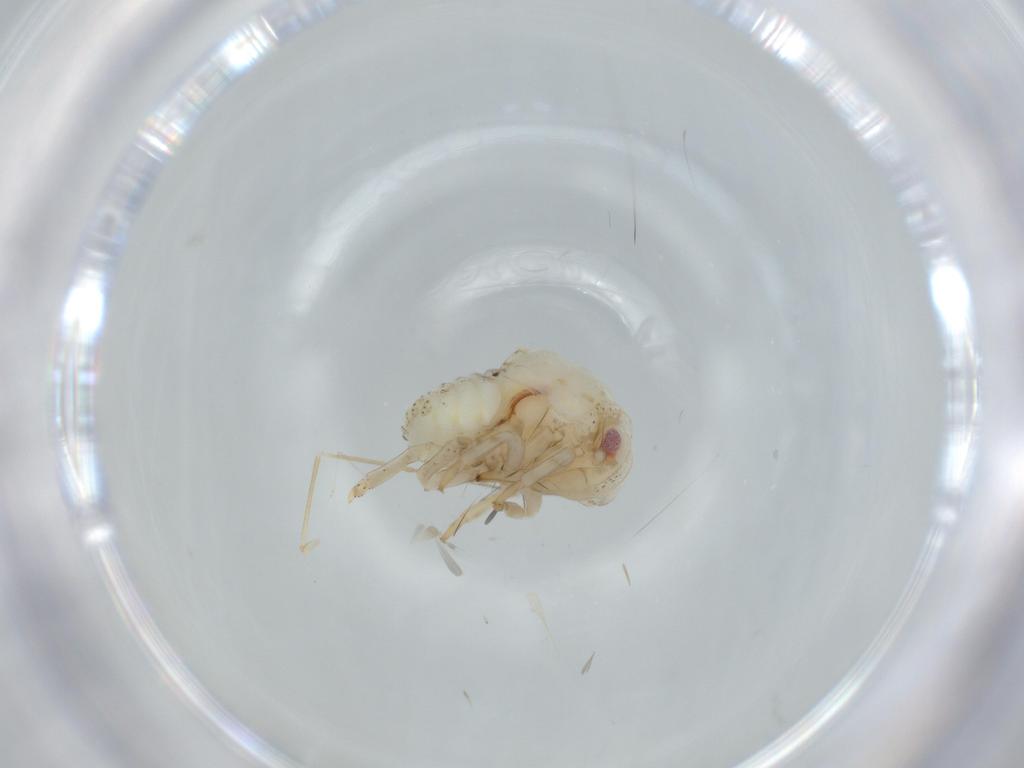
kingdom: Animalia
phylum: Arthropoda
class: Insecta
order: Hemiptera
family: Acanaloniidae
